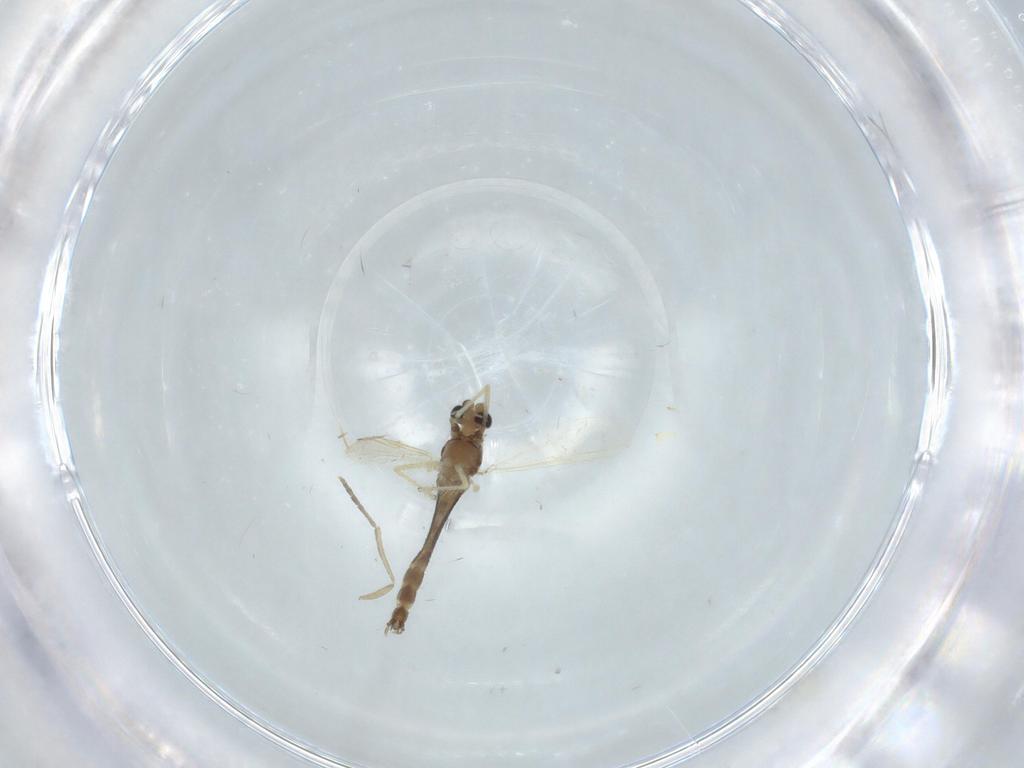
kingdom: Animalia
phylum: Arthropoda
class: Insecta
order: Diptera
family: Chironomidae
